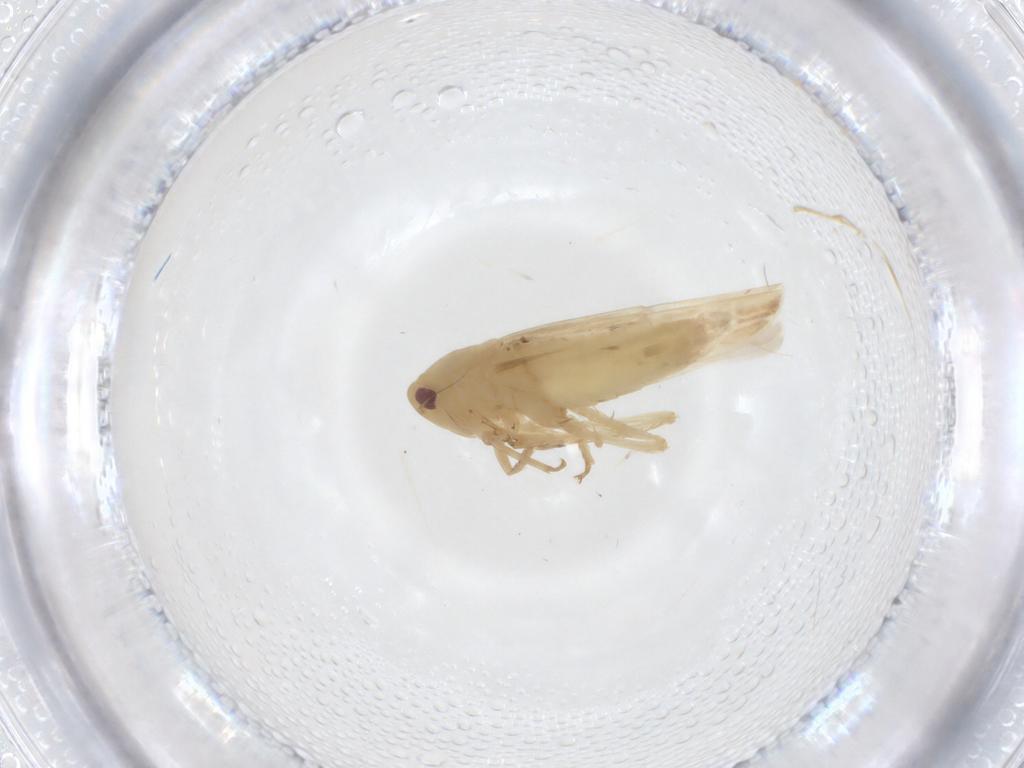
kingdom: Animalia
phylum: Arthropoda
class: Insecta
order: Hemiptera
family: Cicadellidae
